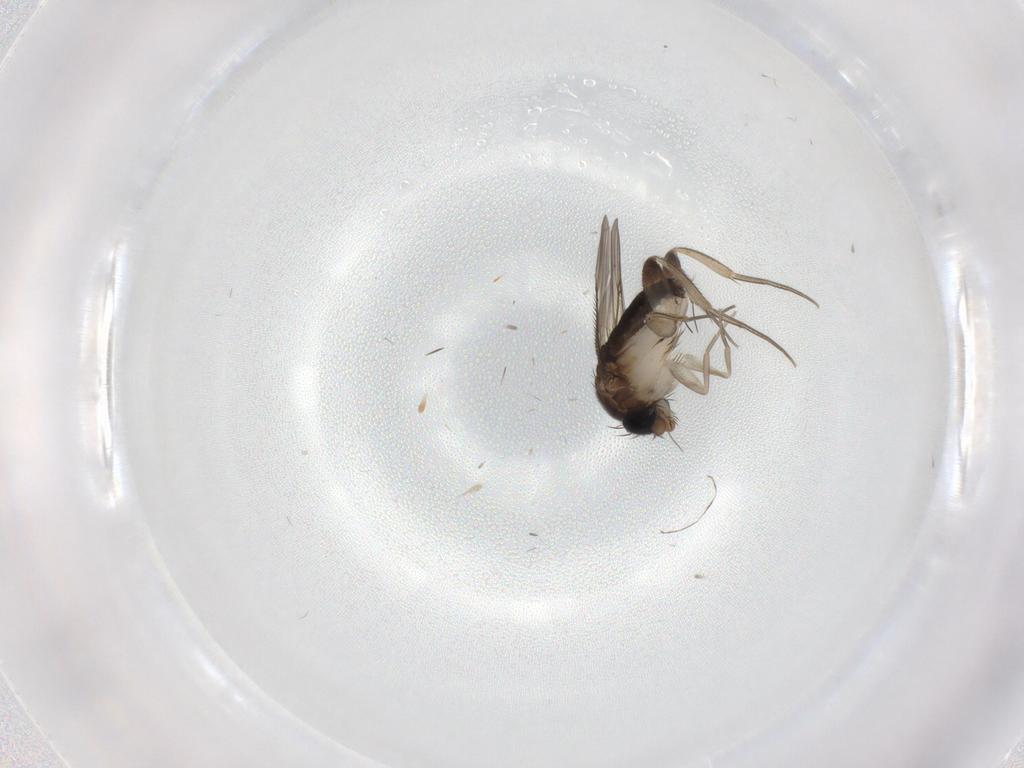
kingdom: Animalia
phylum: Arthropoda
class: Insecta
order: Diptera
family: Phoridae
